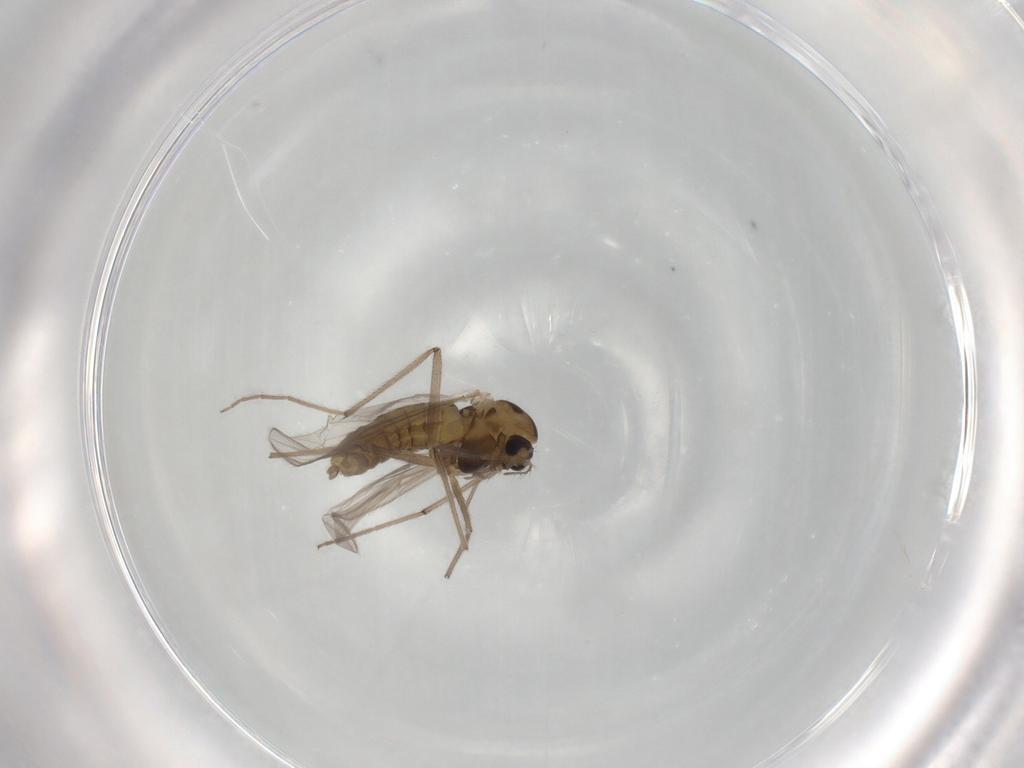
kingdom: Animalia
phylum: Arthropoda
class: Insecta
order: Diptera
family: Chironomidae
